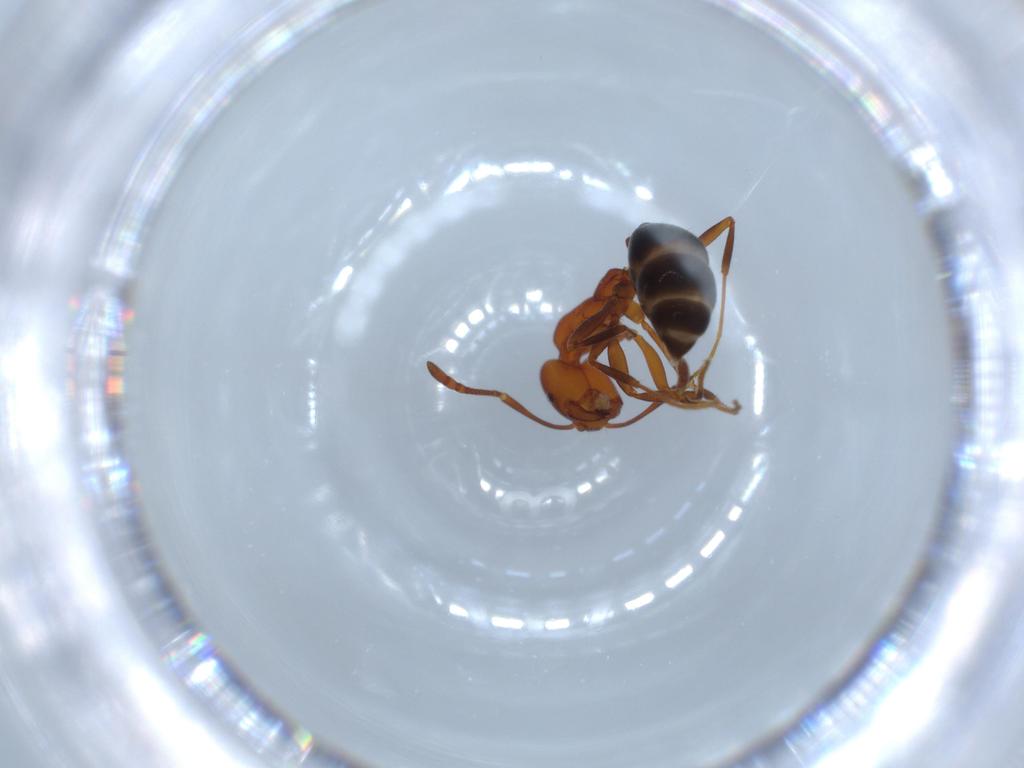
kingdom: Animalia
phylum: Arthropoda
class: Insecta
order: Hymenoptera
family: Formicidae
